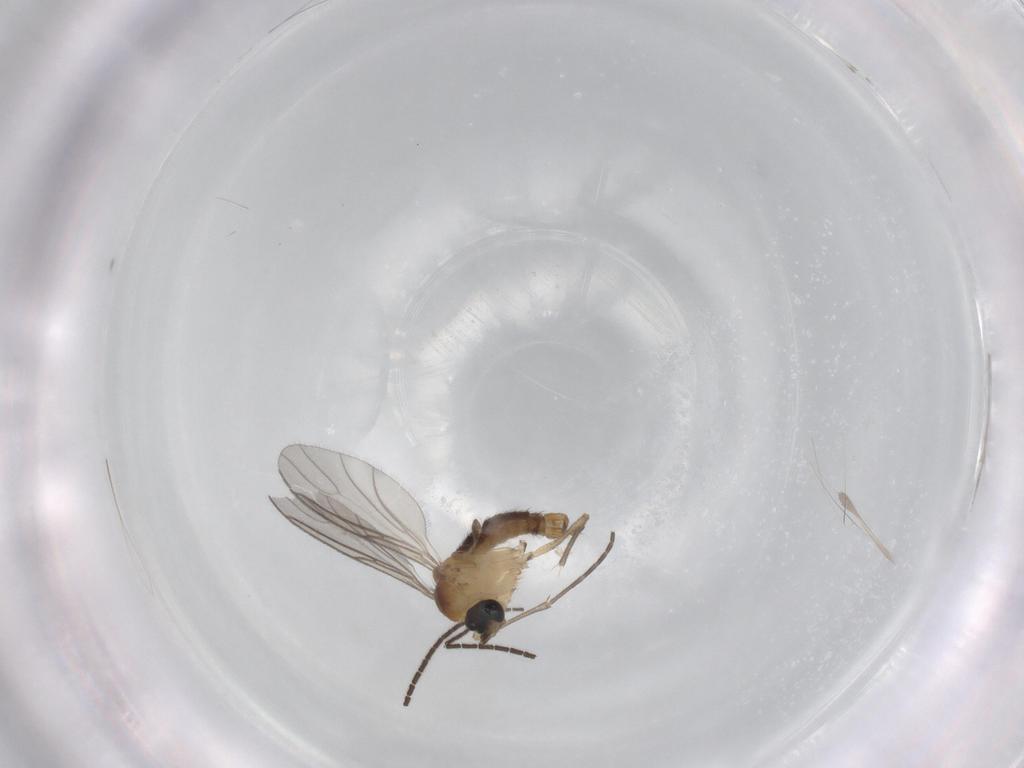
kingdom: Animalia
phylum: Arthropoda
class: Insecta
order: Diptera
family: Sciaridae
